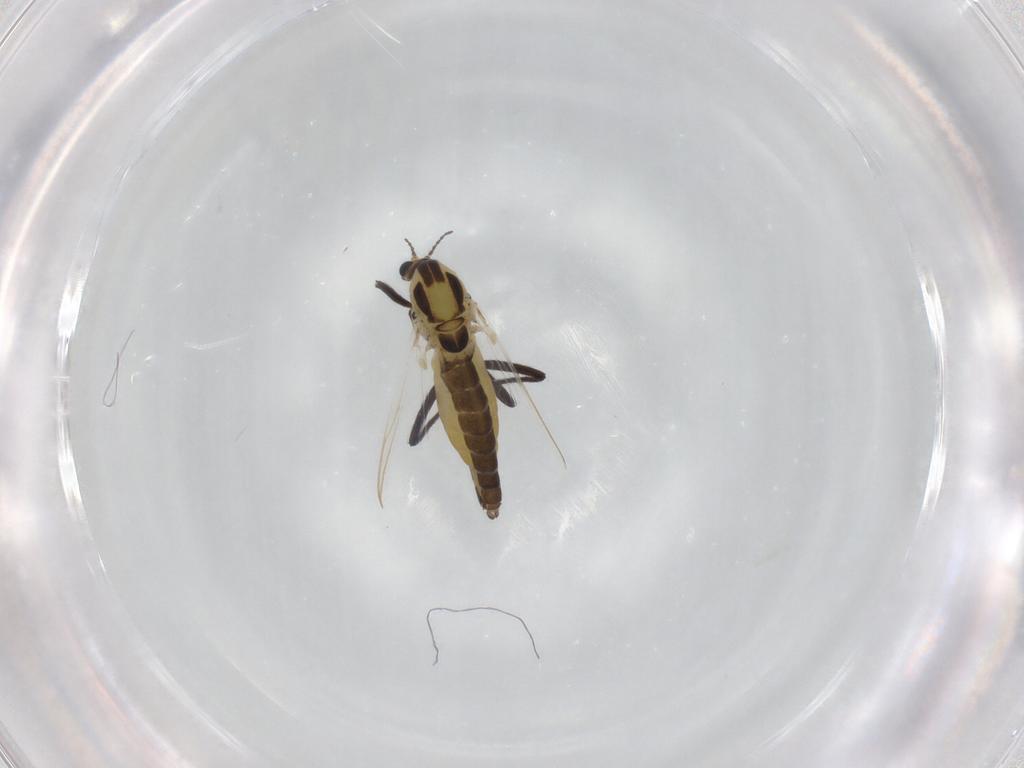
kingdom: Animalia
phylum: Arthropoda
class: Insecta
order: Diptera
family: Chironomidae
